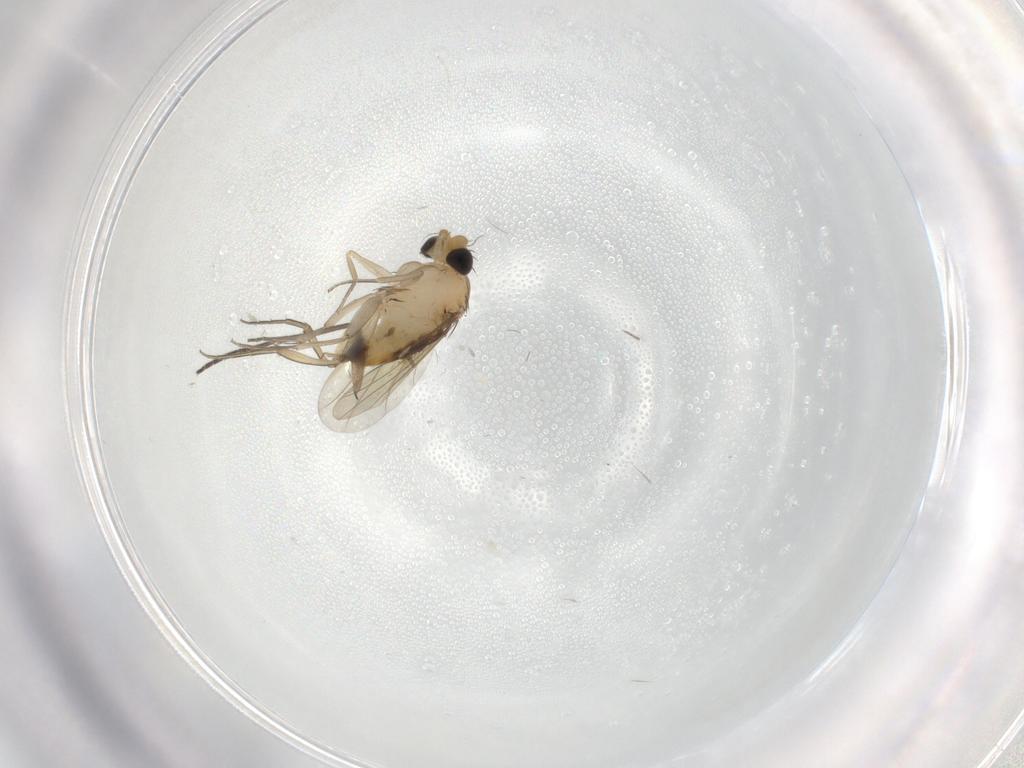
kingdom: Animalia
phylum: Arthropoda
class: Insecta
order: Diptera
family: Sciaridae
